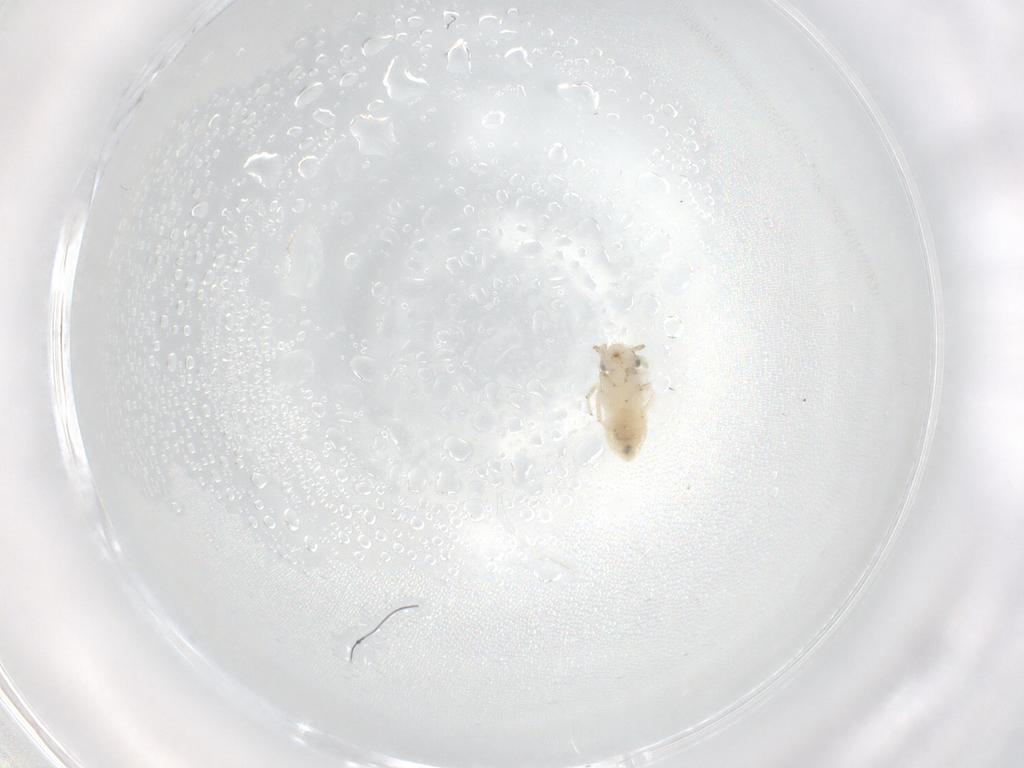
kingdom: Animalia
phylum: Arthropoda
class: Insecta
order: Psocodea
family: Lepidopsocidae
